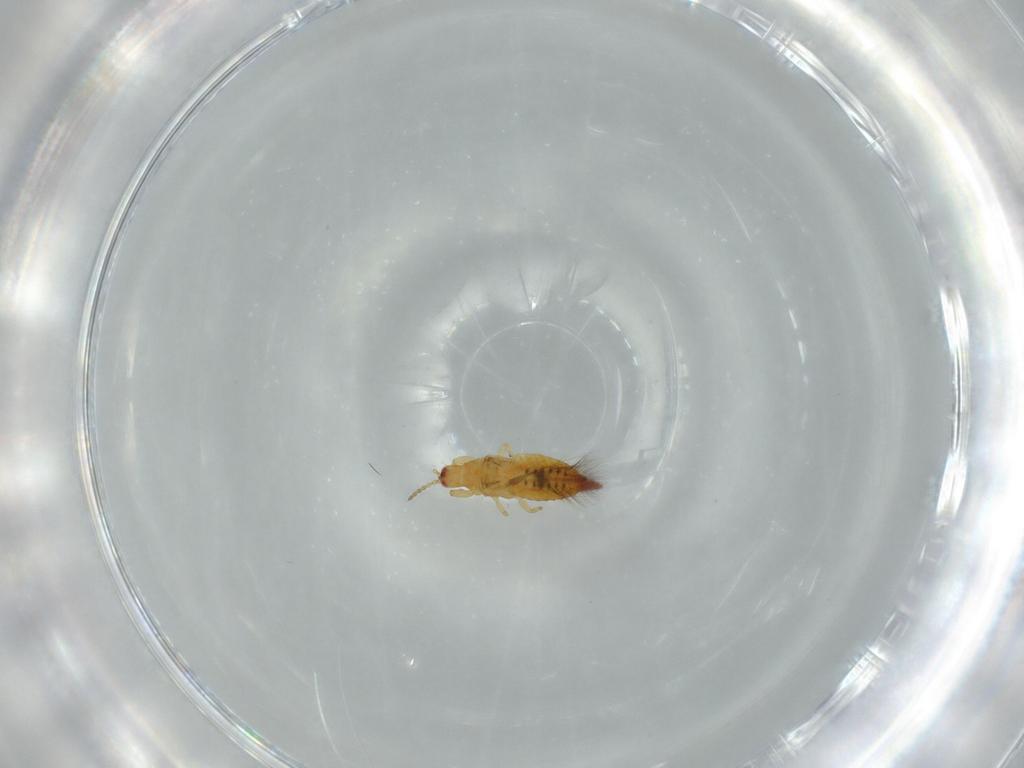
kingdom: Animalia
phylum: Arthropoda
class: Insecta
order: Thysanoptera
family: Phlaeothripidae
